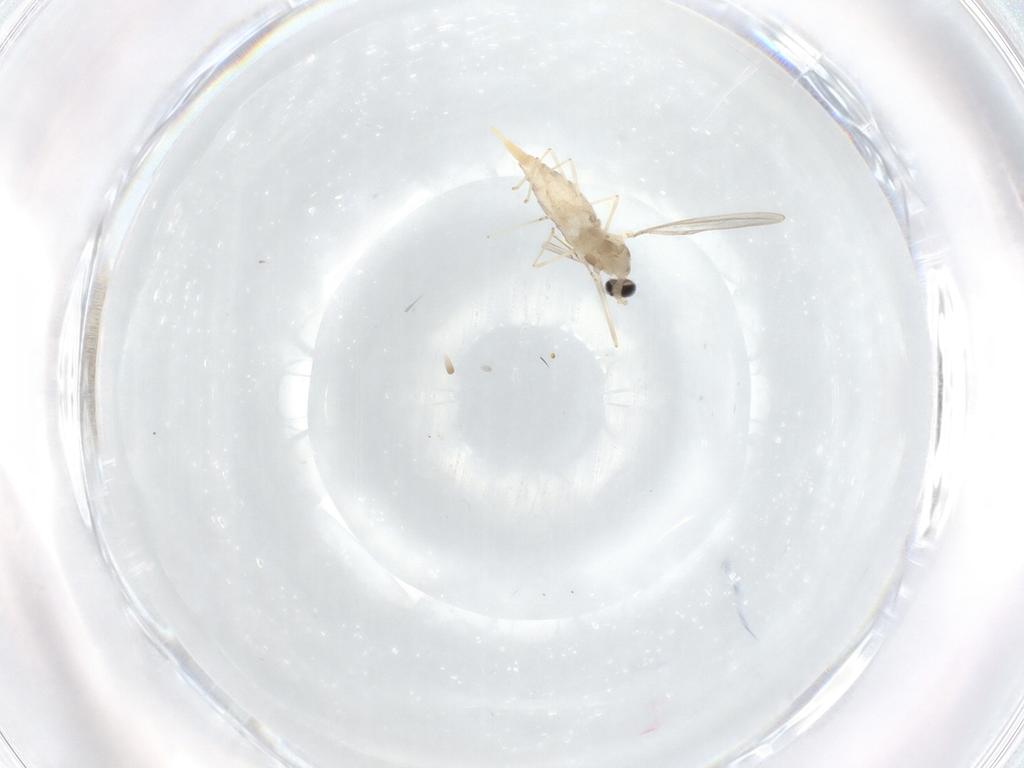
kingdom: Animalia
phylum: Arthropoda
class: Insecta
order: Diptera
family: Cecidomyiidae
